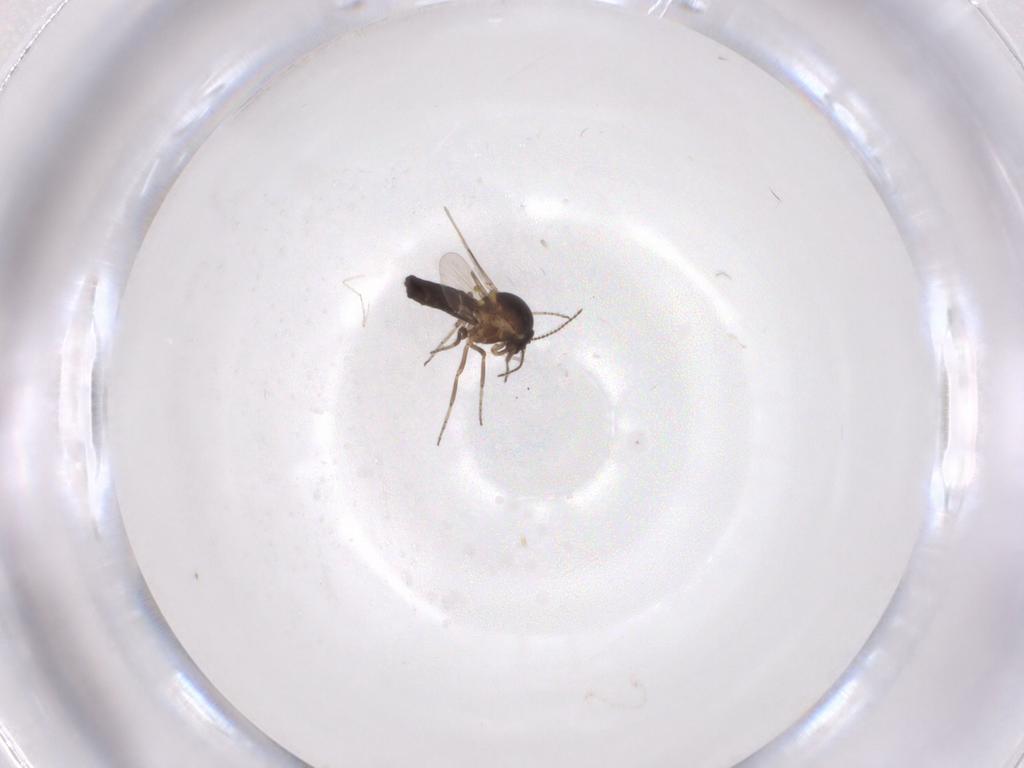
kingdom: Animalia
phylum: Arthropoda
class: Insecta
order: Diptera
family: Ceratopogonidae
